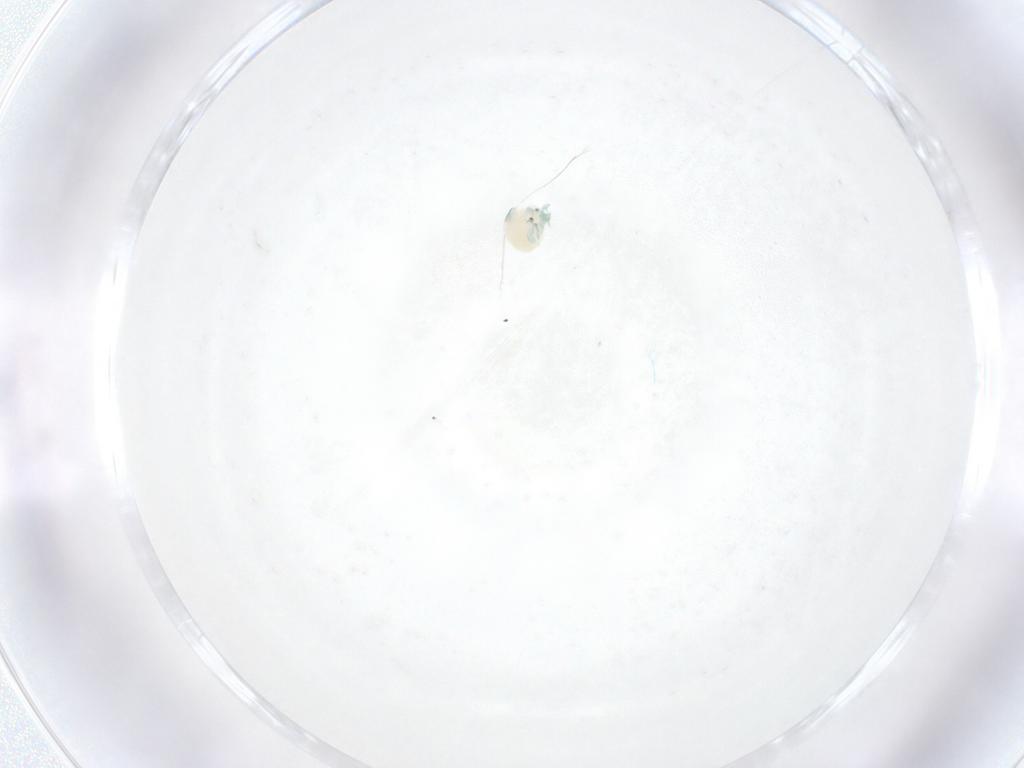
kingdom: Animalia
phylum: Arthropoda
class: Arachnida
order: Trombidiformes
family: Arrenuridae
